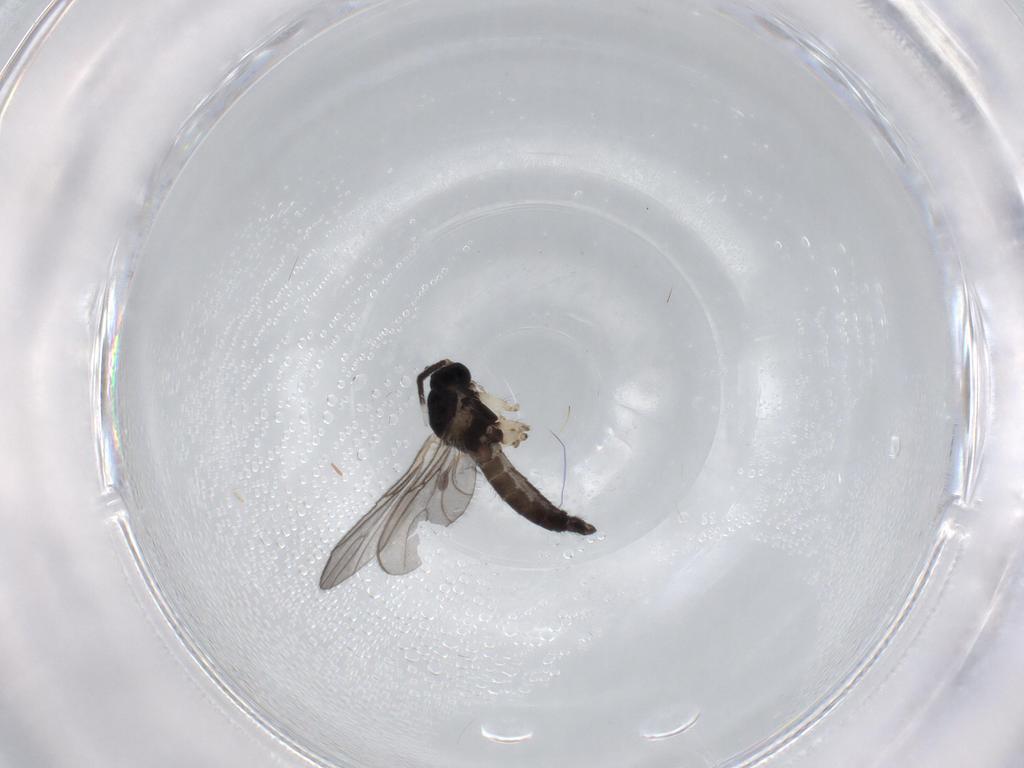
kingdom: Animalia
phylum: Arthropoda
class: Insecta
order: Diptera
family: Sciaridae
